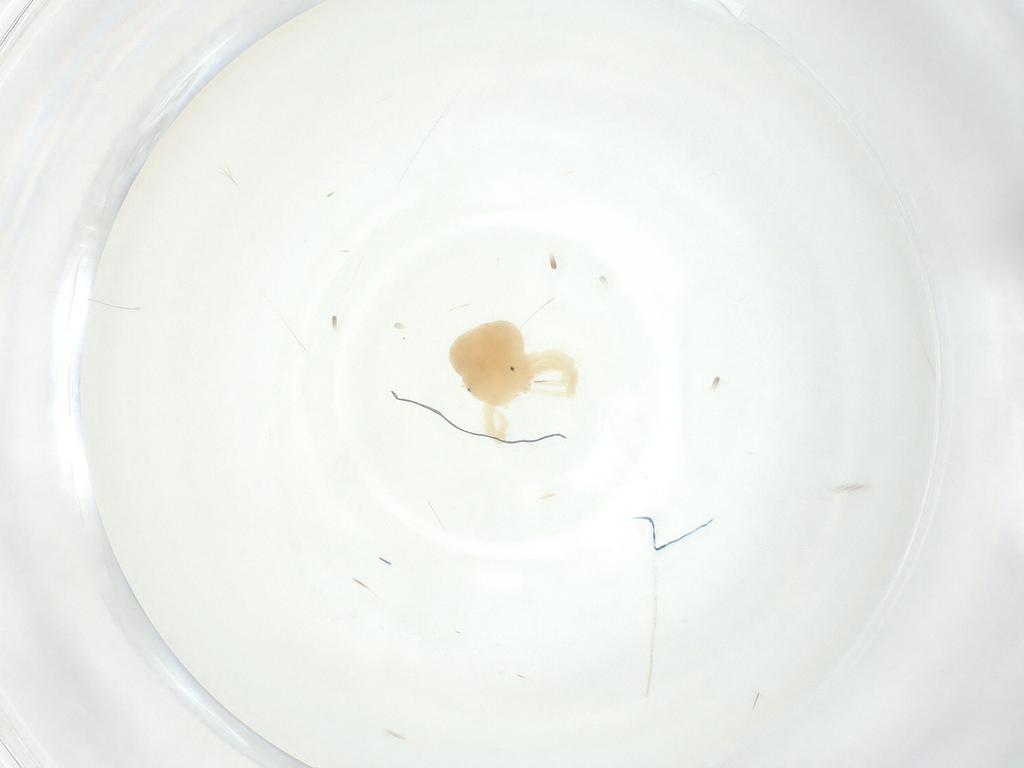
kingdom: Animalia
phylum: Arthropoda
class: Arachnida
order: Trombidiformes
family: Anystidae
